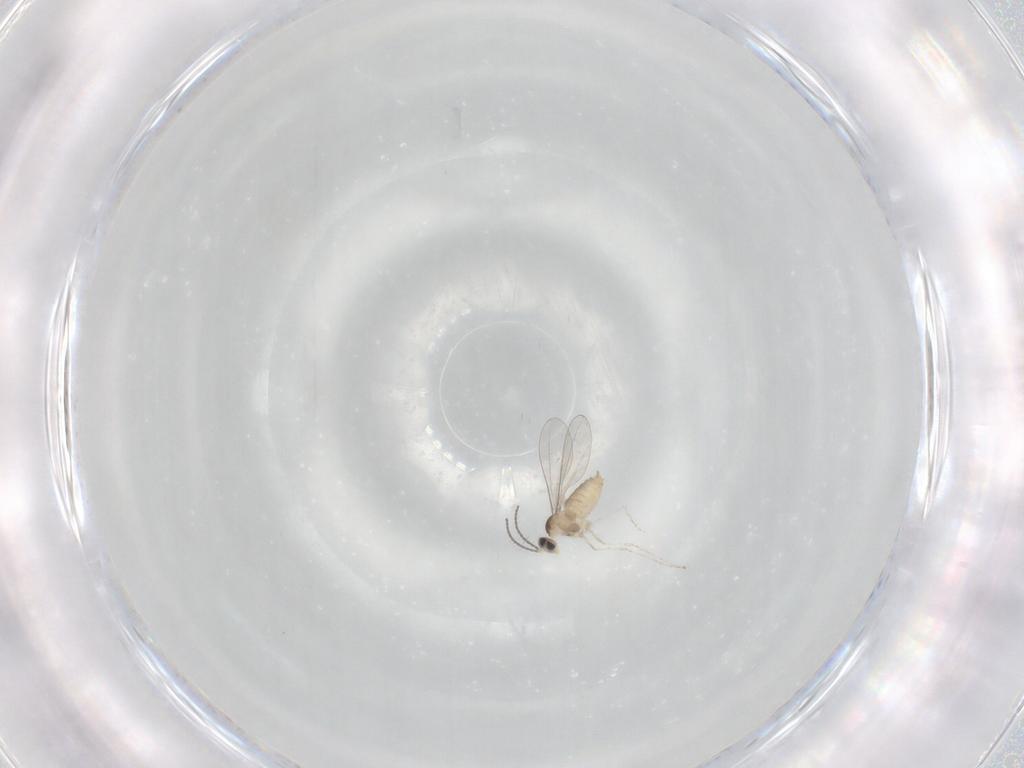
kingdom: Animalia
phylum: Arthropoda
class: Insecta
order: Diptera
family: Cecidomyiidae
